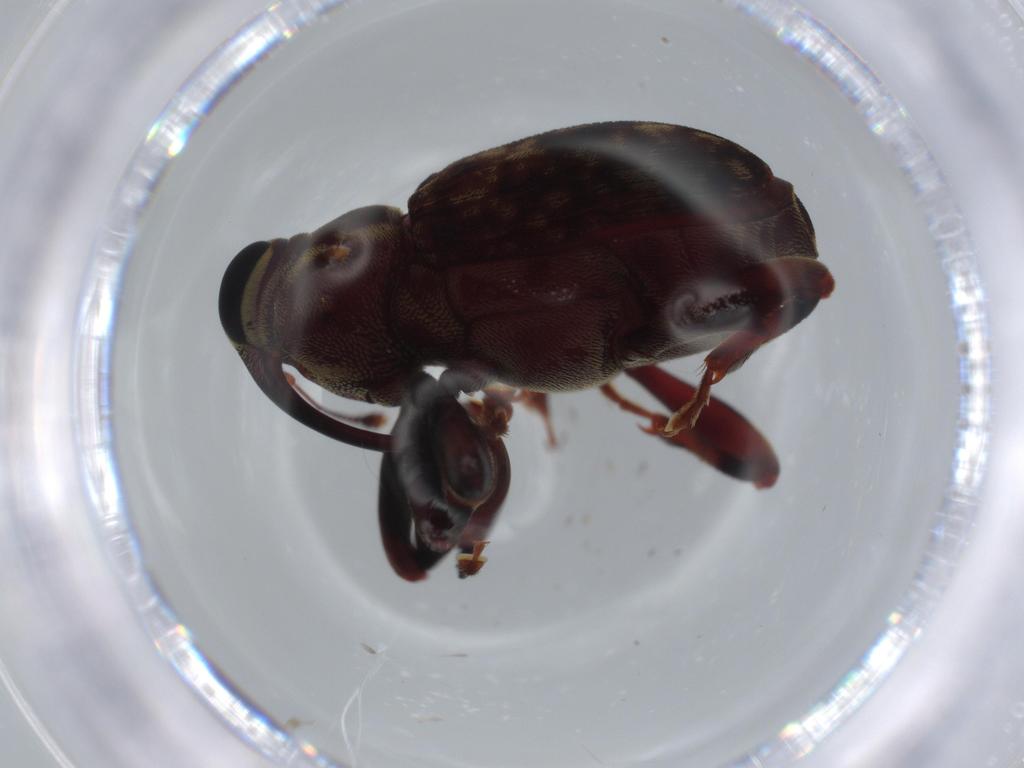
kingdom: Animalia
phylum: Arthropoda
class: Insecta
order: Coleoptera
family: Curculionidae
